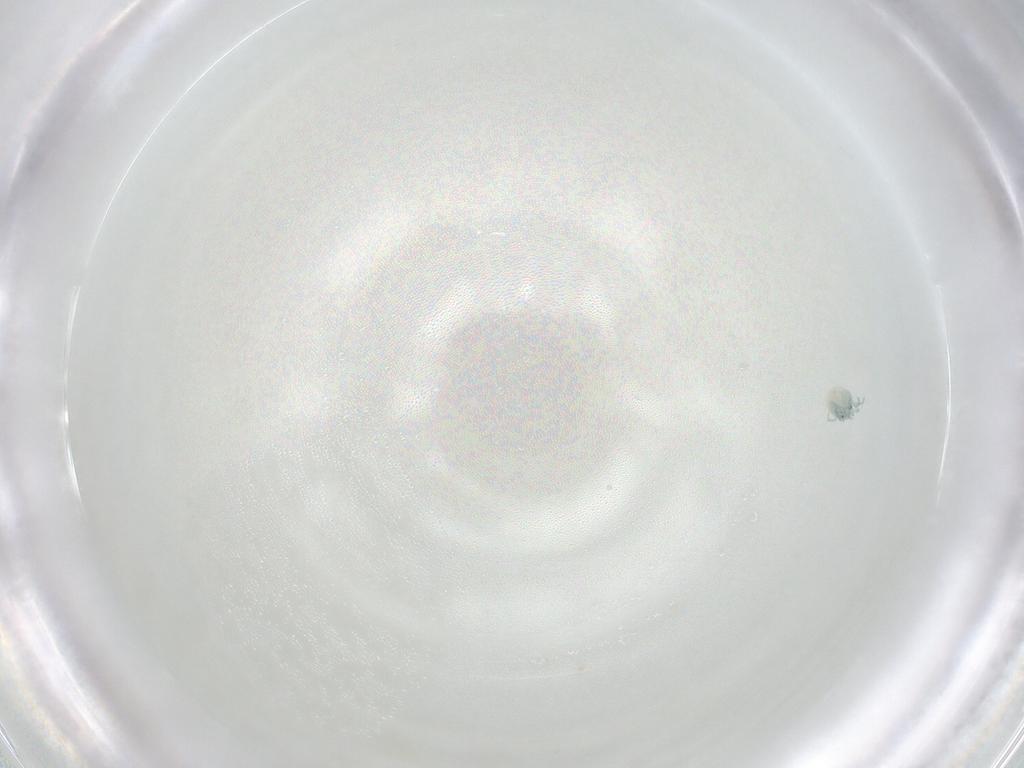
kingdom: Animalia
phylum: Arthropoda
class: Arachnida
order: Trombidiformes
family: Arrenuridae
